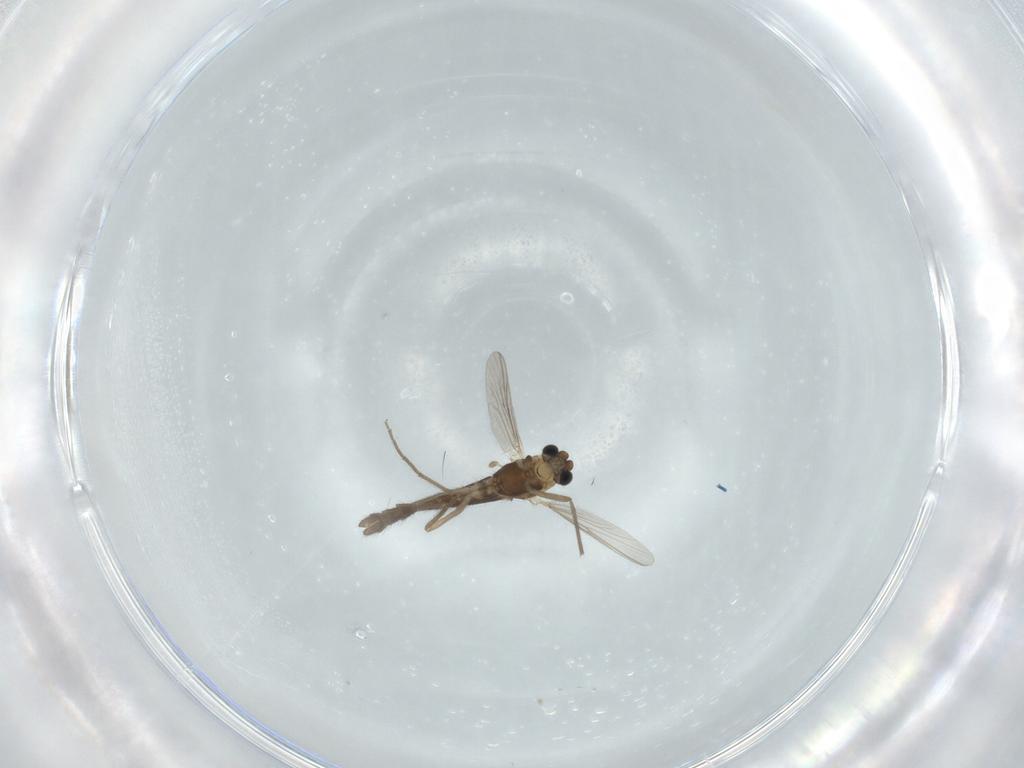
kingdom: Animalia
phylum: Arthropoda
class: Insecta
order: Diptera
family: Chironomidae
